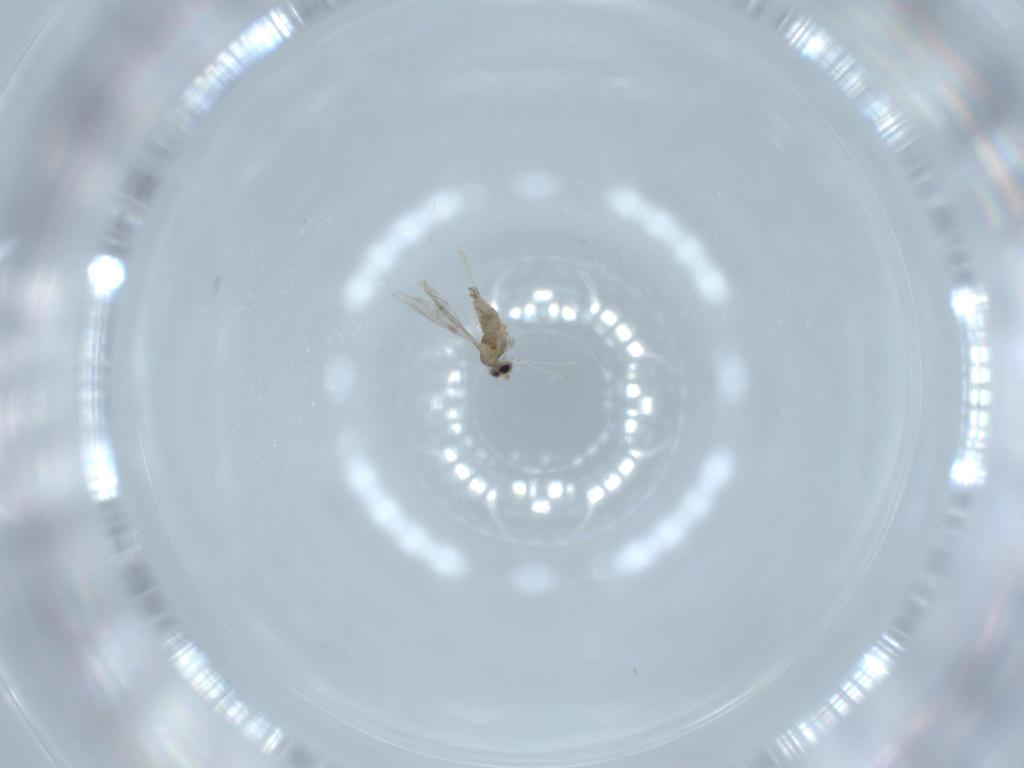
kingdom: Animalia
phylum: Arthropoda
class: Insecta
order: Diptera
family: Cecidomyiidae
